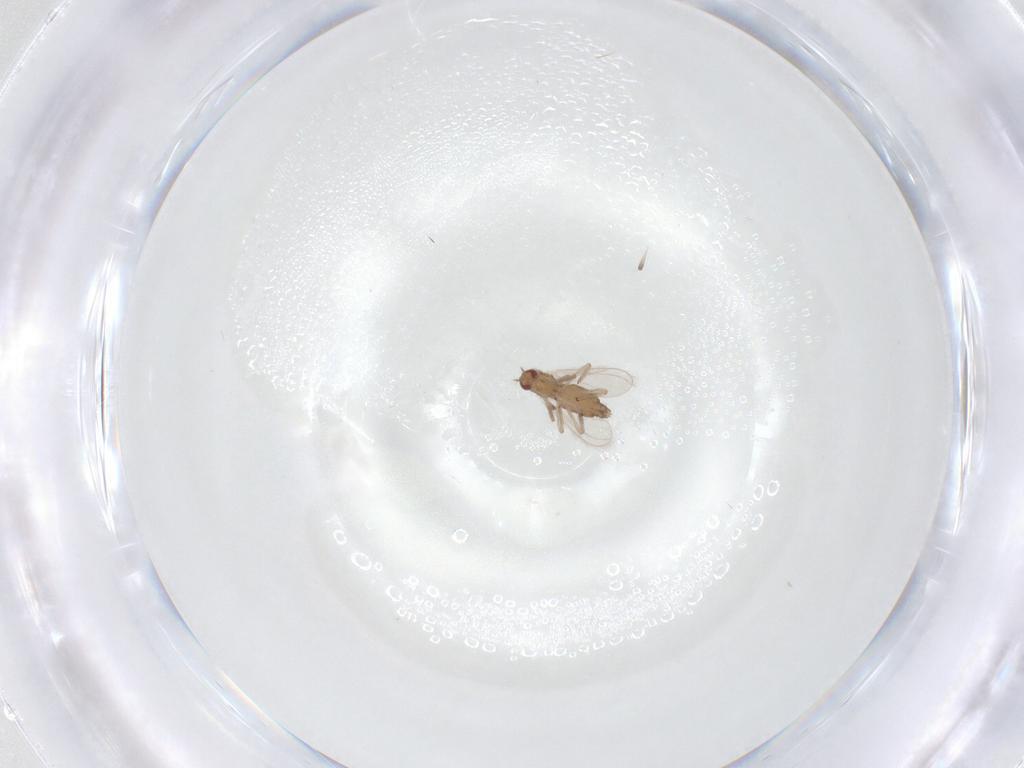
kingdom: Animalia
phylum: Arthropoda
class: Insecta
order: Diptera
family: Chironomidae
